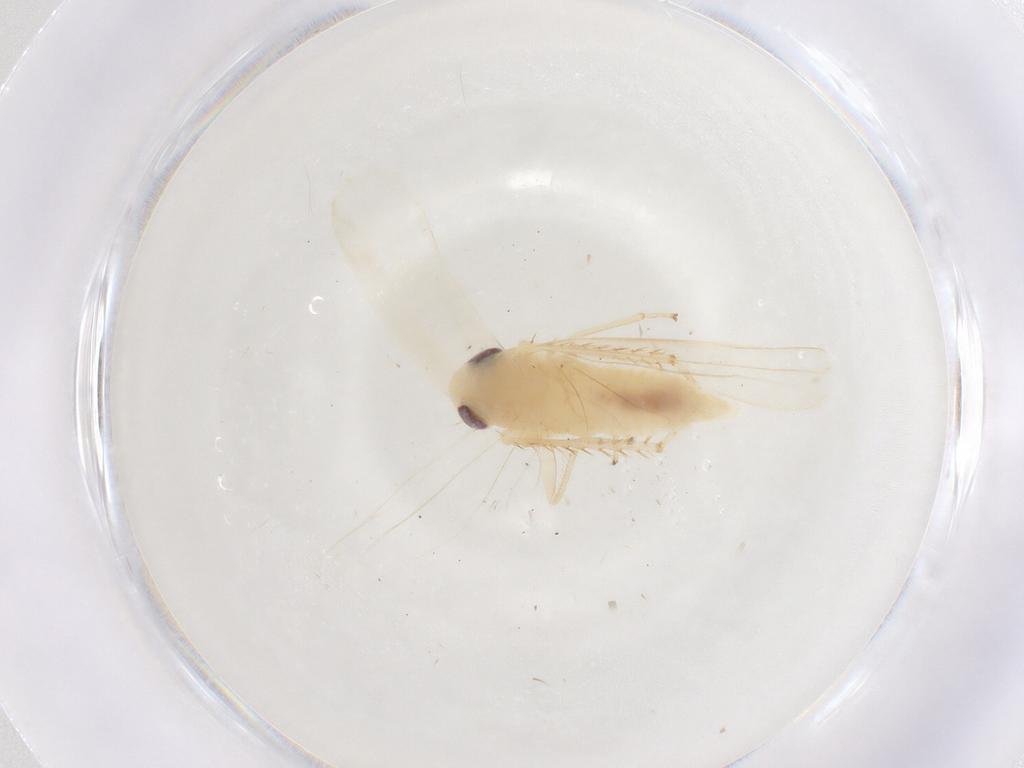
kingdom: Animalia
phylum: Arthropoda
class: Insecta
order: Hemiptera
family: Cicadellidae
